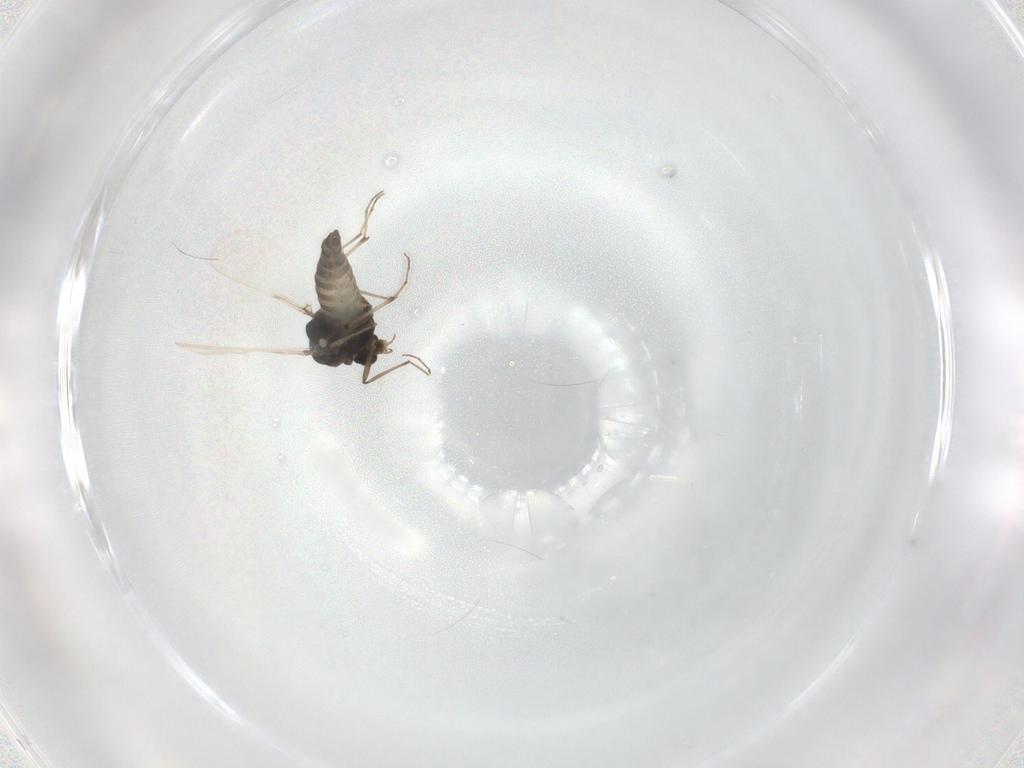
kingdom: Animalia
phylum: Arthropoda
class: Insecta
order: Diptera
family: Chironomidae
